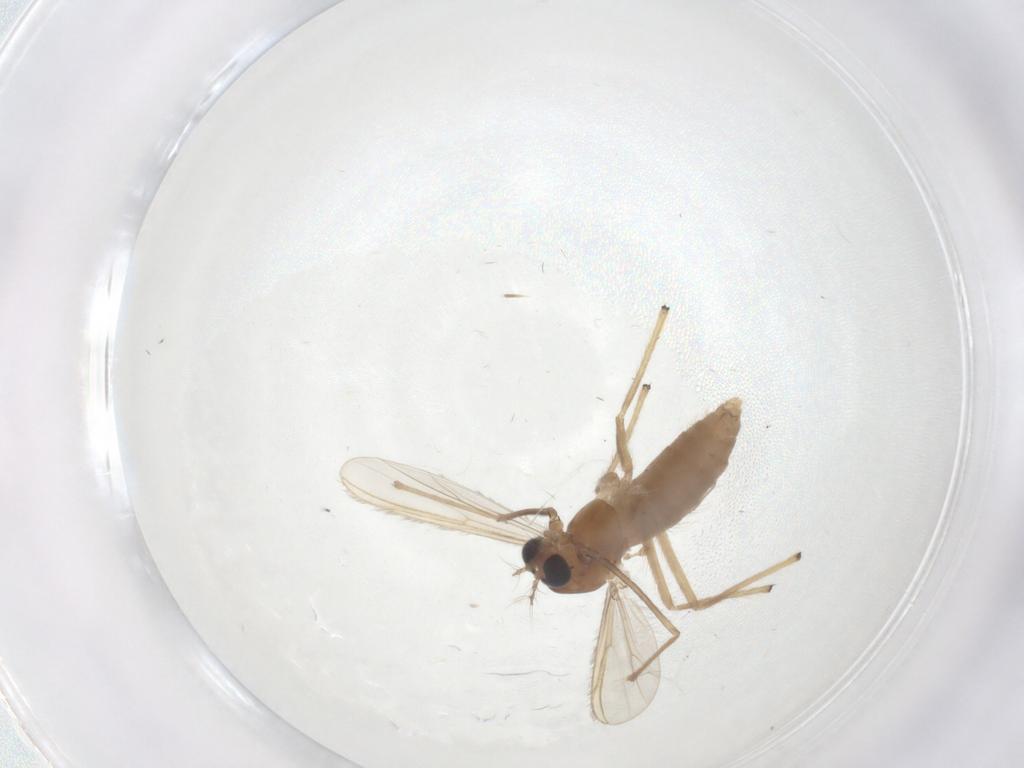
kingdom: Animalia
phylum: Arthropoda
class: Insecta
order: Diptera
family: Chironomidae
